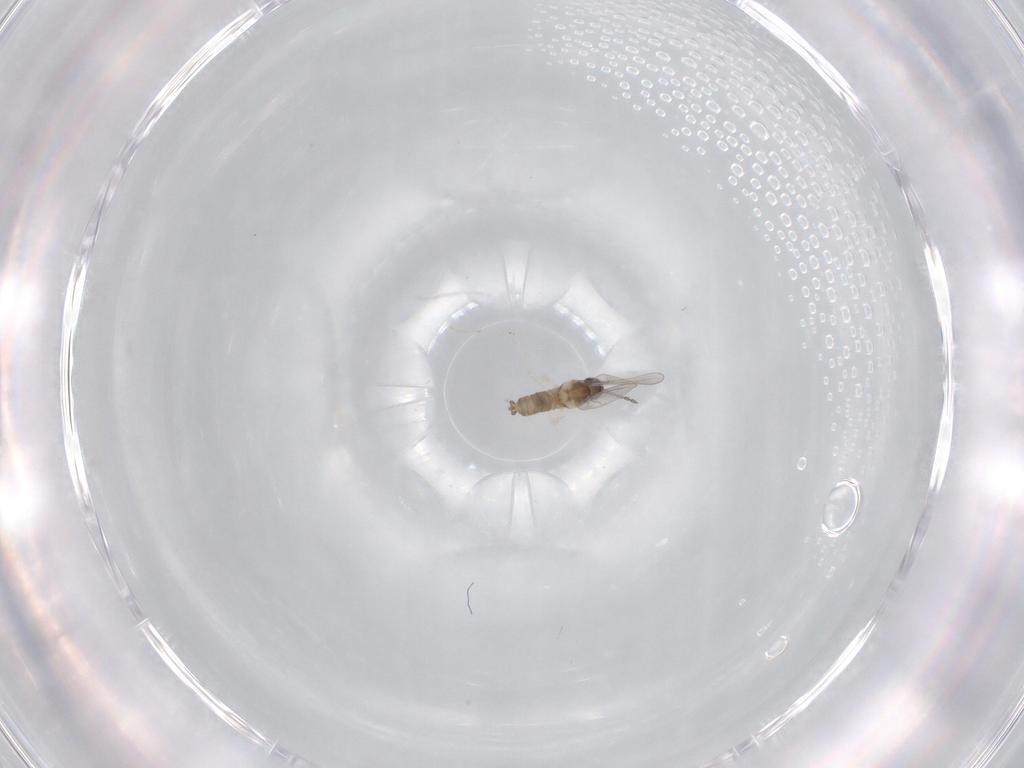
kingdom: Animalia
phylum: Arthropoda
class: Insecta
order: Diptera
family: Cecidomyiidae
